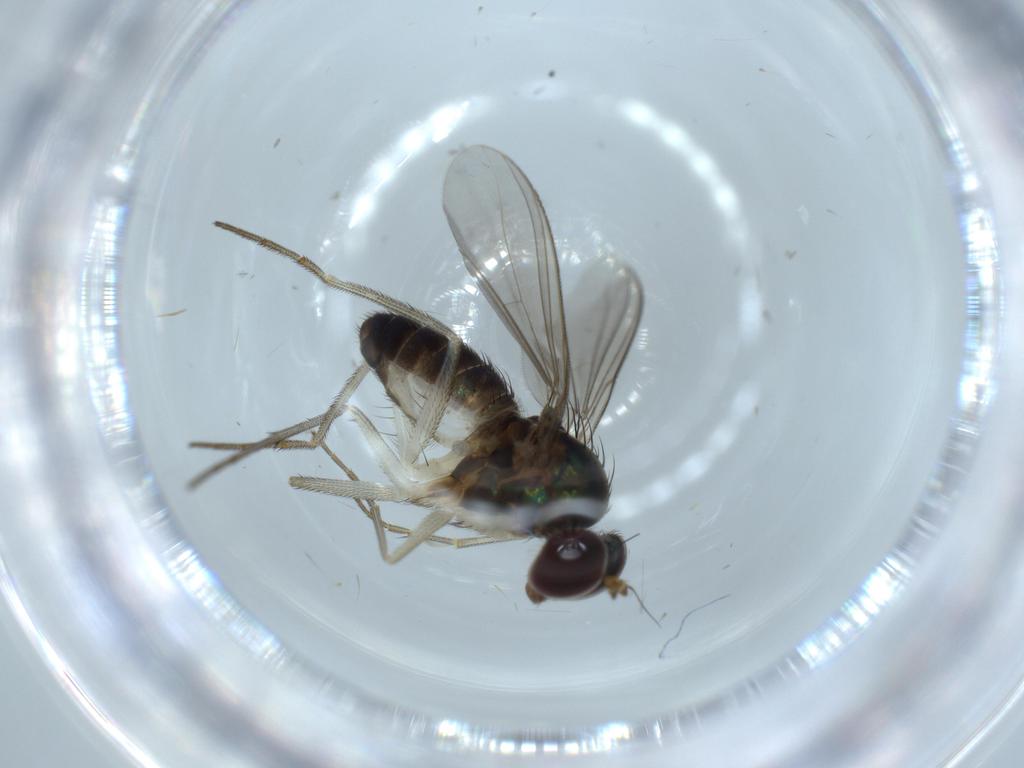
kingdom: Animalia
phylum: Arthropoda
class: Insecta
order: Diptera
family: Dolichopodidae
